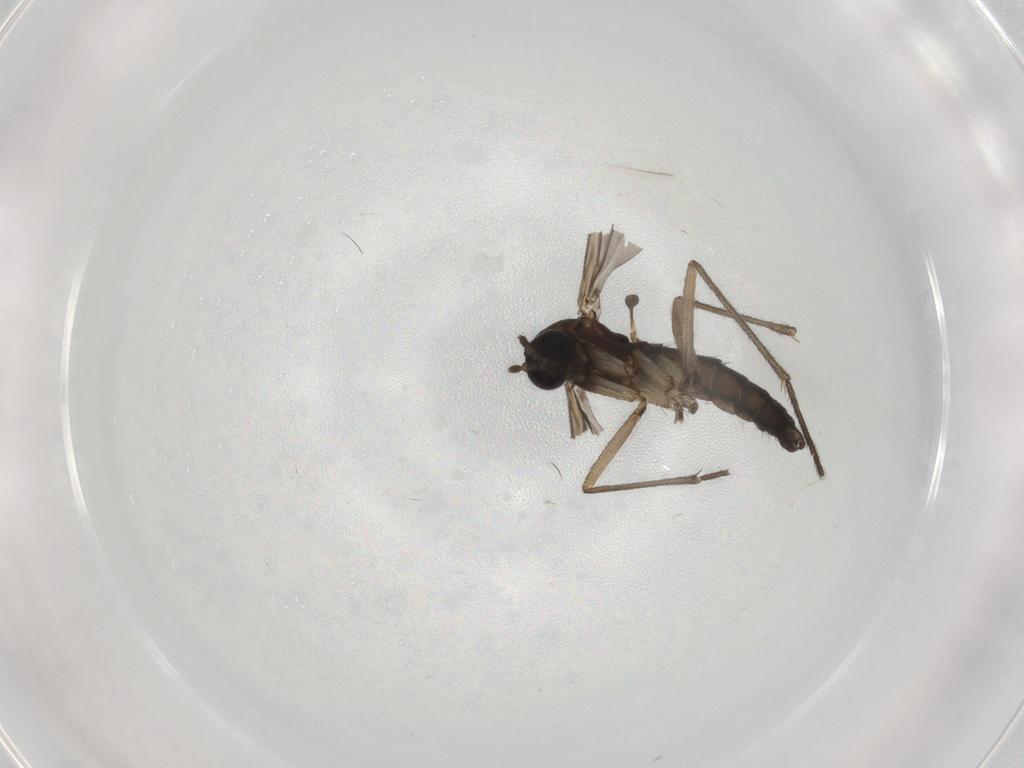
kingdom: Animalia
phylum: Arthropoda
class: Insecta
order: Diptera
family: Sciaridae
